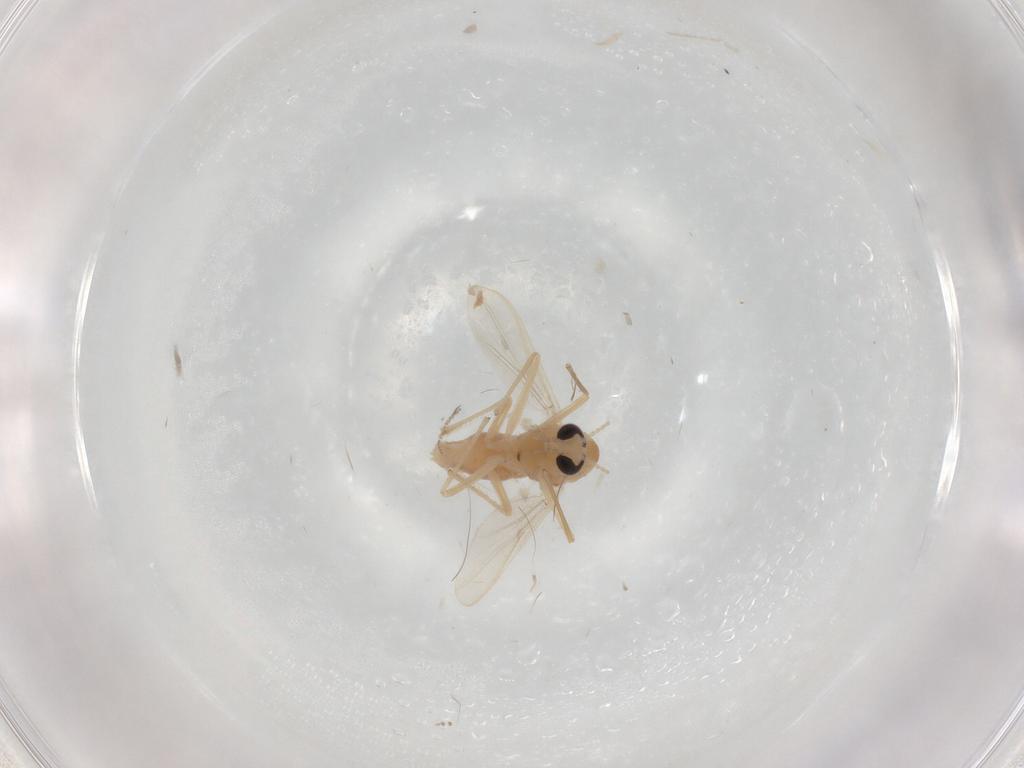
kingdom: Animalia
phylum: Arthropoda
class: Insecta
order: Diptera
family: Chironomidae
